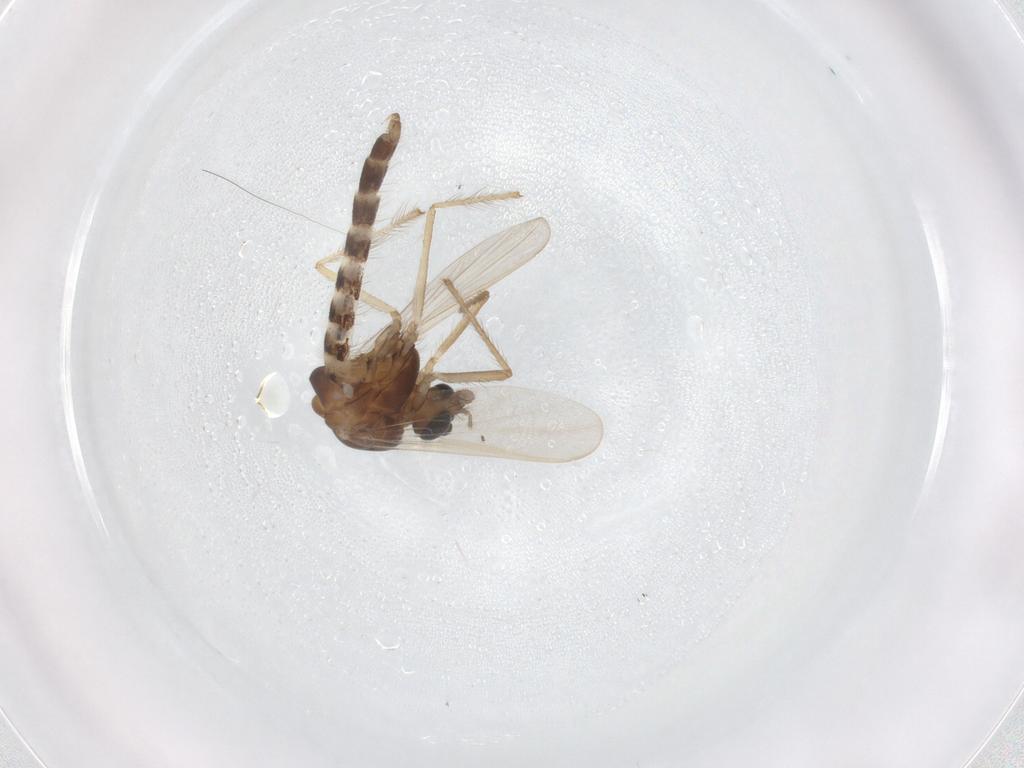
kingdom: Animalia
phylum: Arthropoda
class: Insecta
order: Diptera
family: Chironomidae
